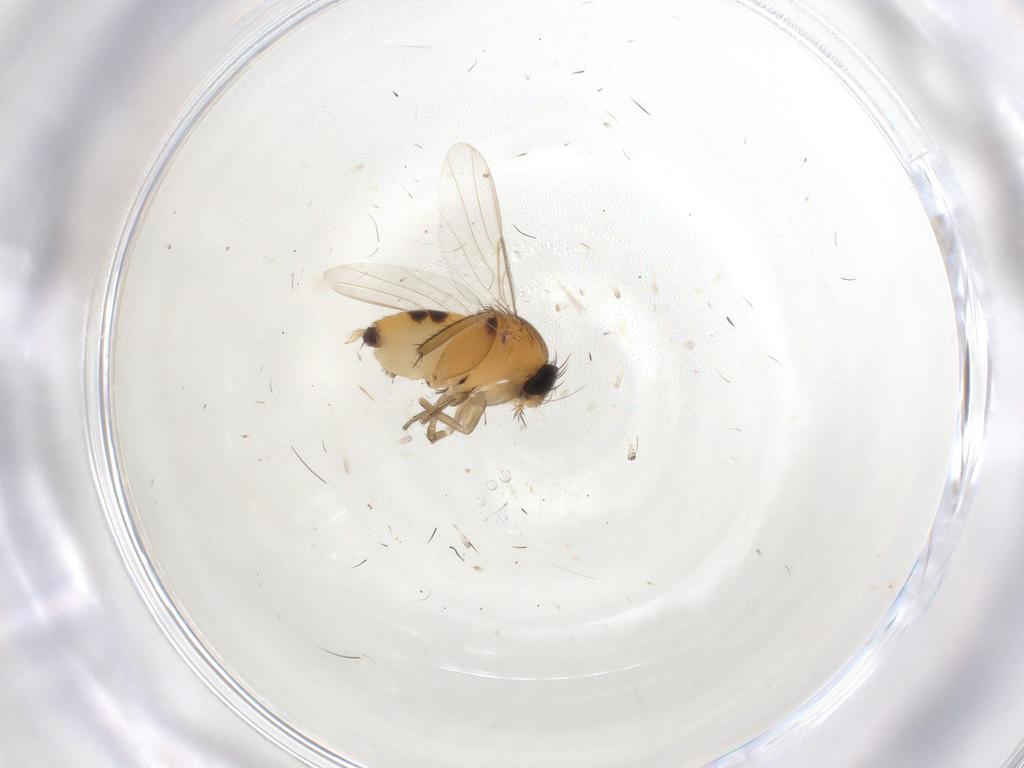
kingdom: Animalia
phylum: Arthropoda
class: Insecta
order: Diptera
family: Phoridae
